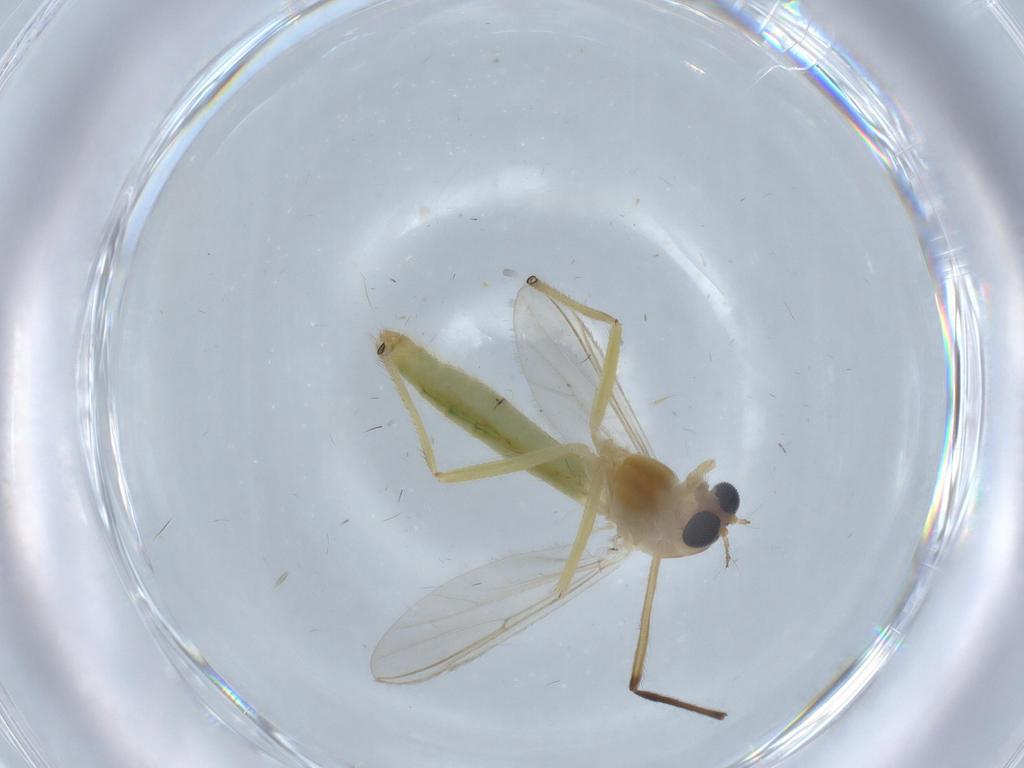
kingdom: Animalia
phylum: Arthropoda
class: Insecta
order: Diptera
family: Chironomidae
